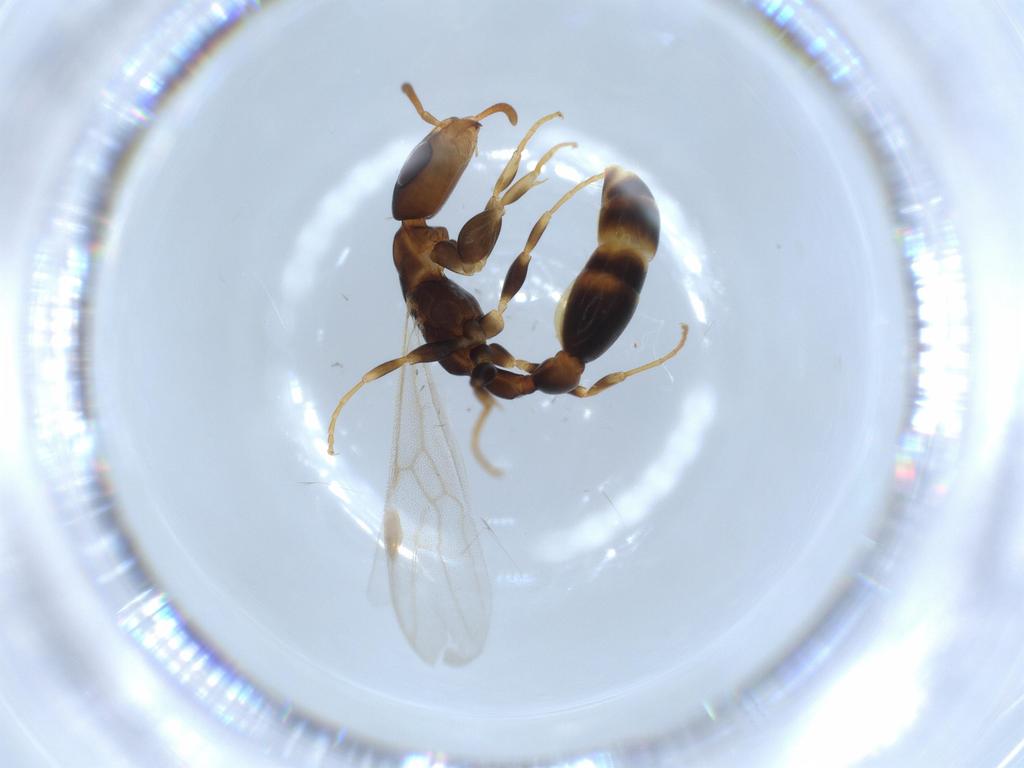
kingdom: Animalia
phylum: Arthropoda
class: Insecta
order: Hymenoptera
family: Formicidae
